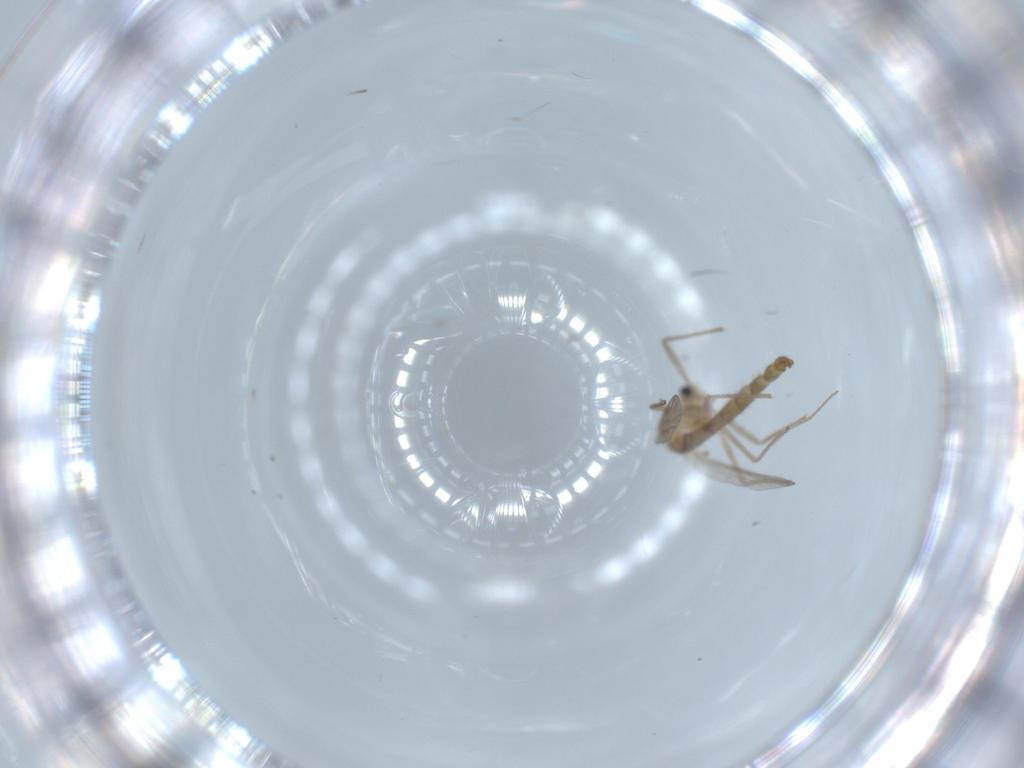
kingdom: Animalia
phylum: Arthropoda
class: Insecta
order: Diptera
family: Chironomidae
